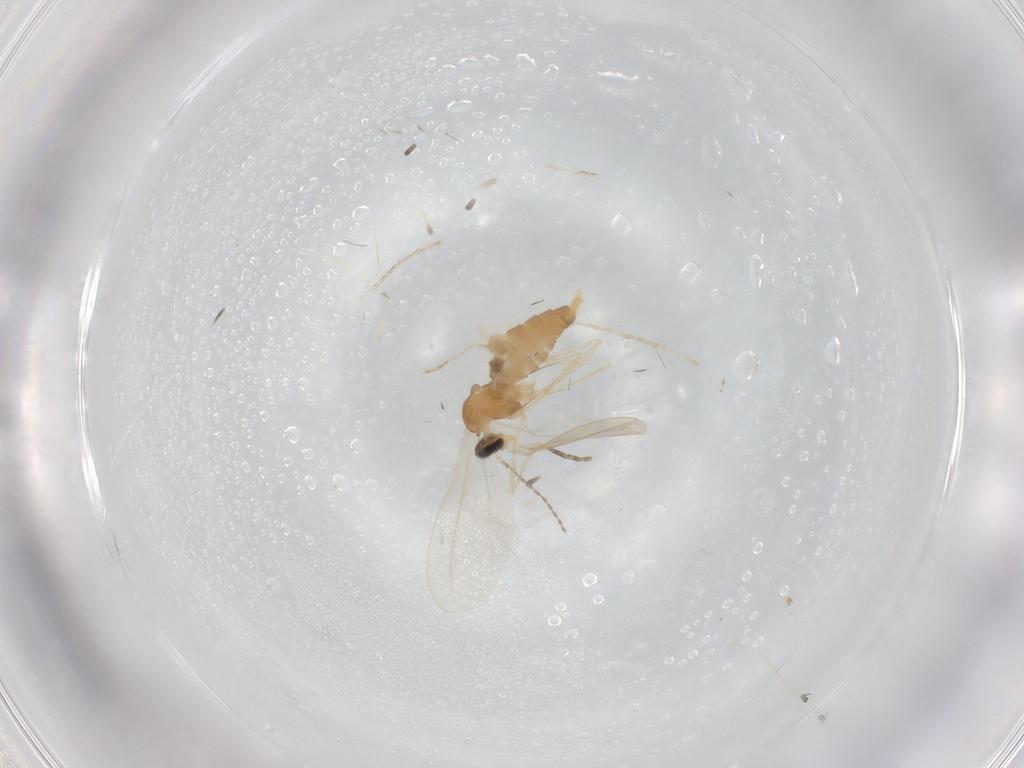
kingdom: Animalia
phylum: Arthropoda
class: Insecta
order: Diptera
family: Cecidomyiidae
